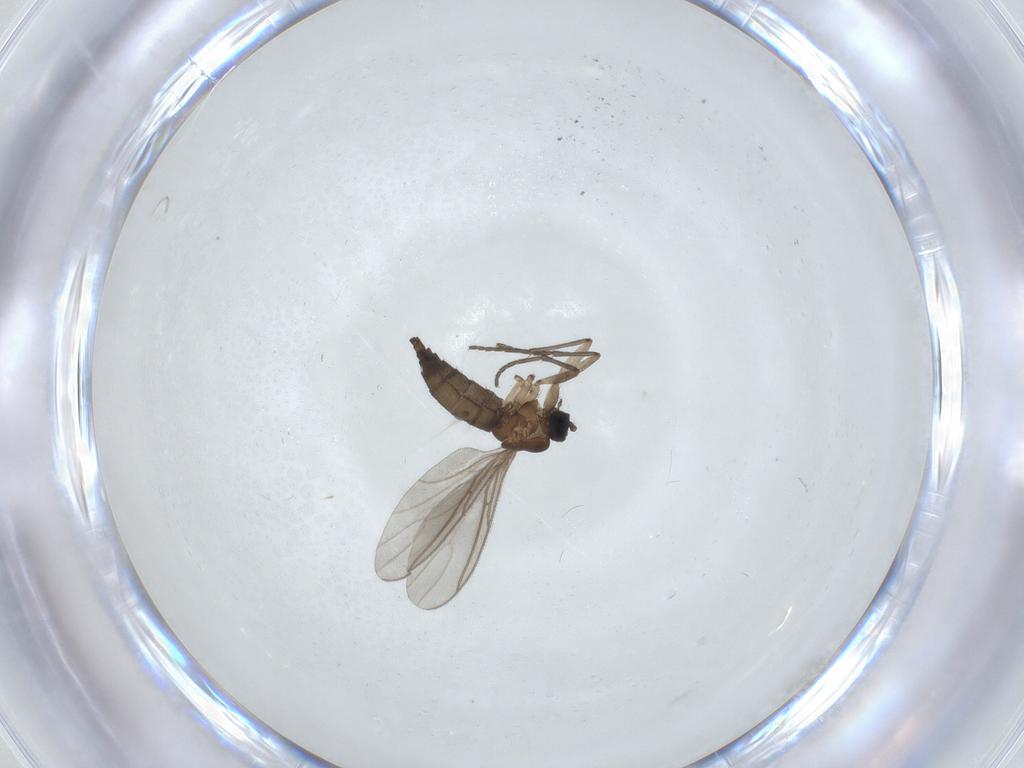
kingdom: Animalia
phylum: Arthropoda
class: Insecta
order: Diptera
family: Sciaridae
